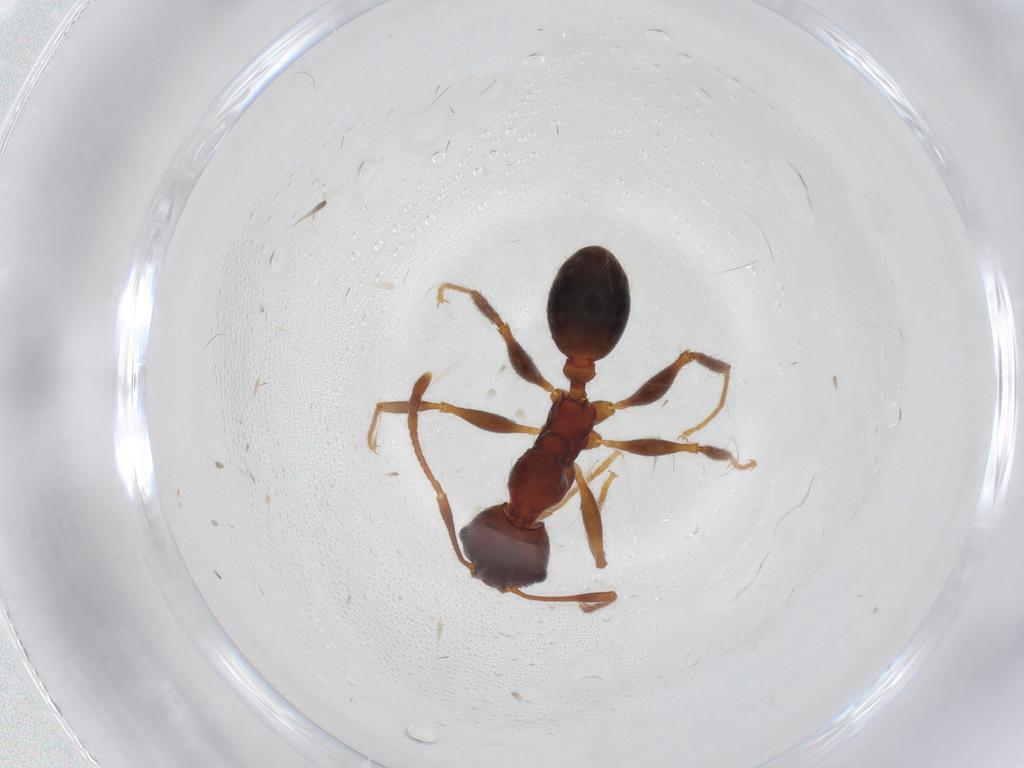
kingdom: Animalia
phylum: Arthropoda
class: Insecta
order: Hymenoptera
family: Formicidae
